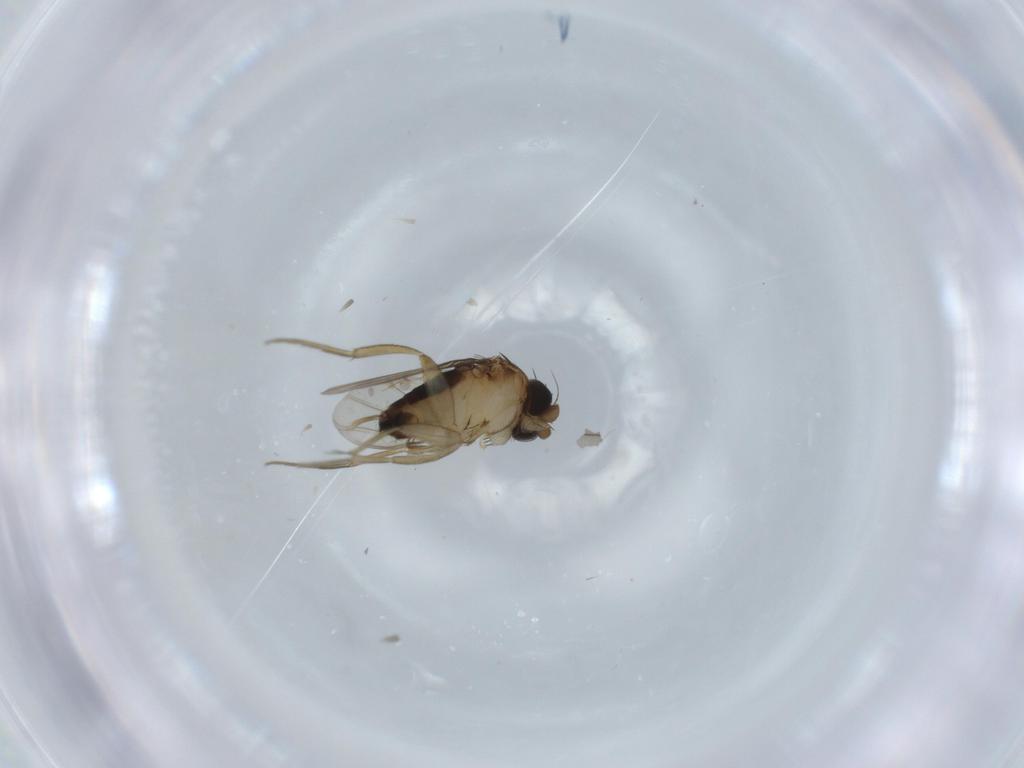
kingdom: Animalia
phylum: Arthropoda
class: Insecta
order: Diptera
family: Phoridae
